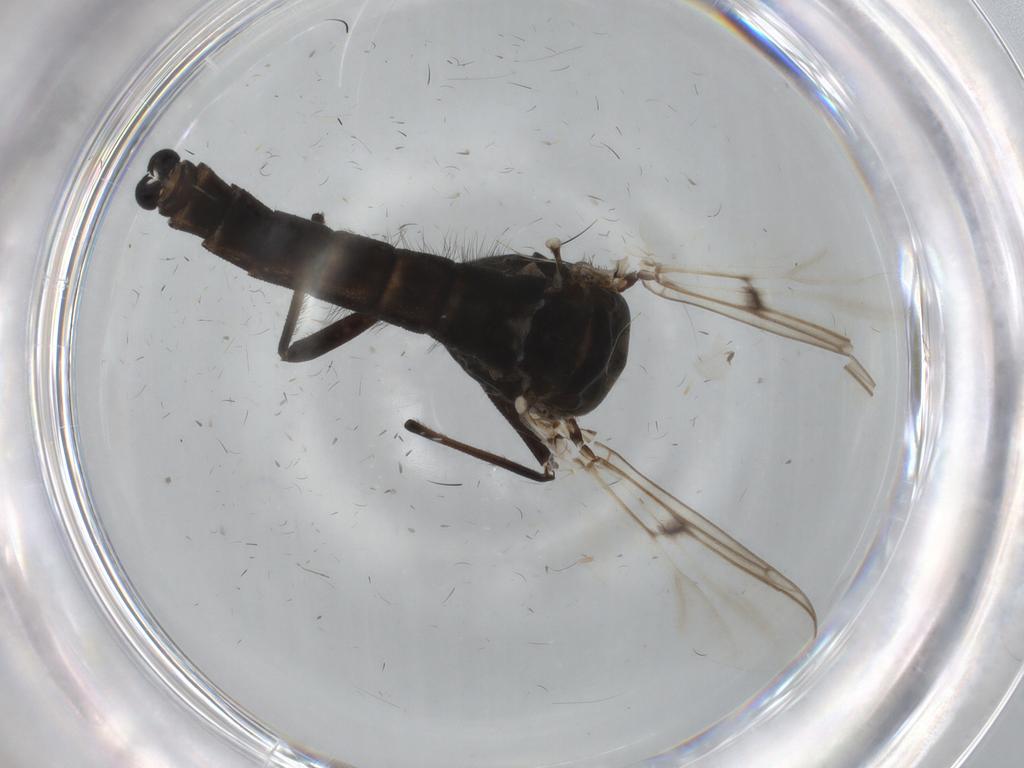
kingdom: Animalia
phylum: Arthropoda
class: Insecta
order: Diptera
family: Chironomidae
